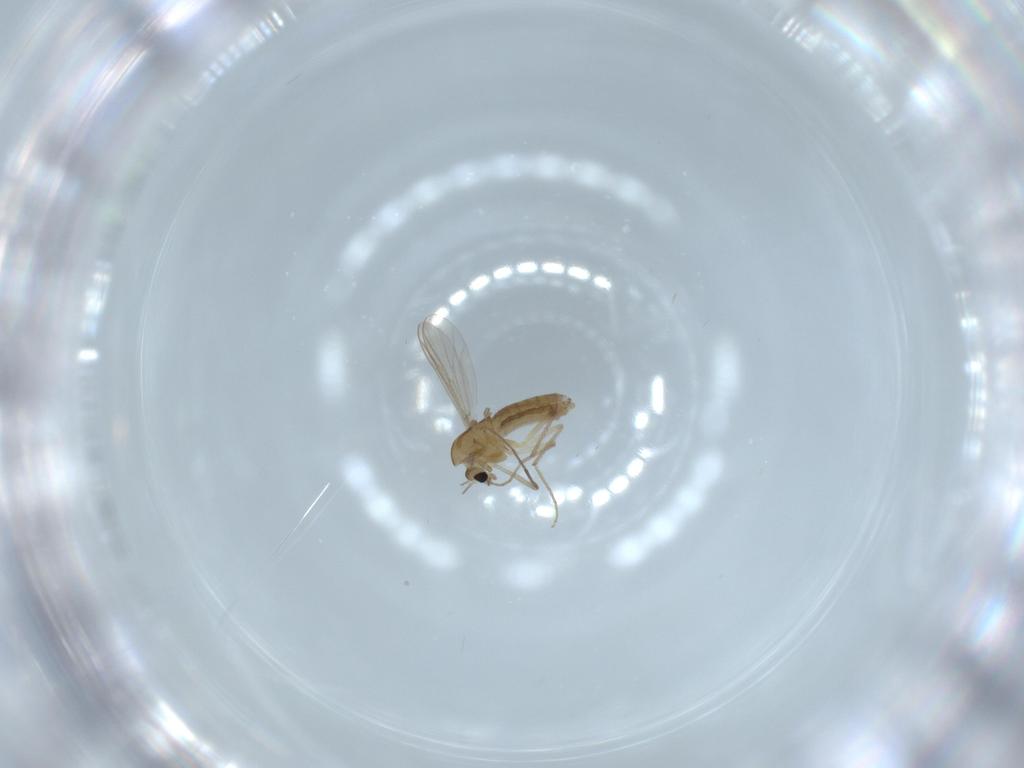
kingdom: Animalia
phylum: Arthropoda
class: Insecta
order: Diptera
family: Chironomidae
